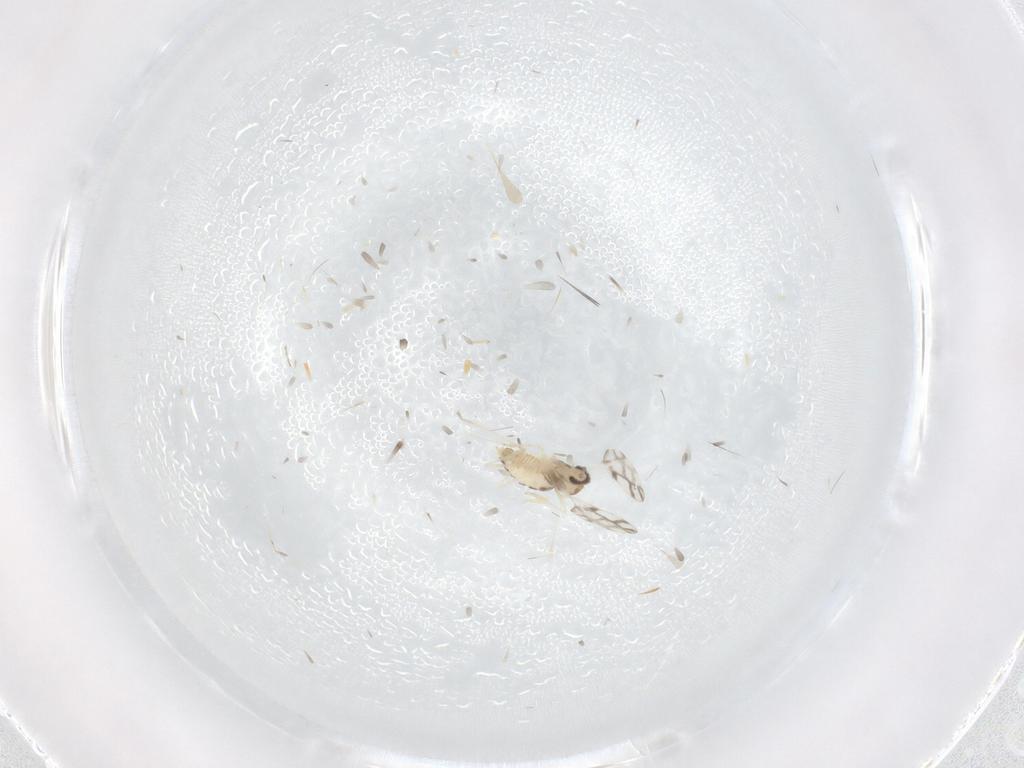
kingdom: Animalia
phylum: Arthropoda
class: Insecta
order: Diptera
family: Cecidomyiidae
